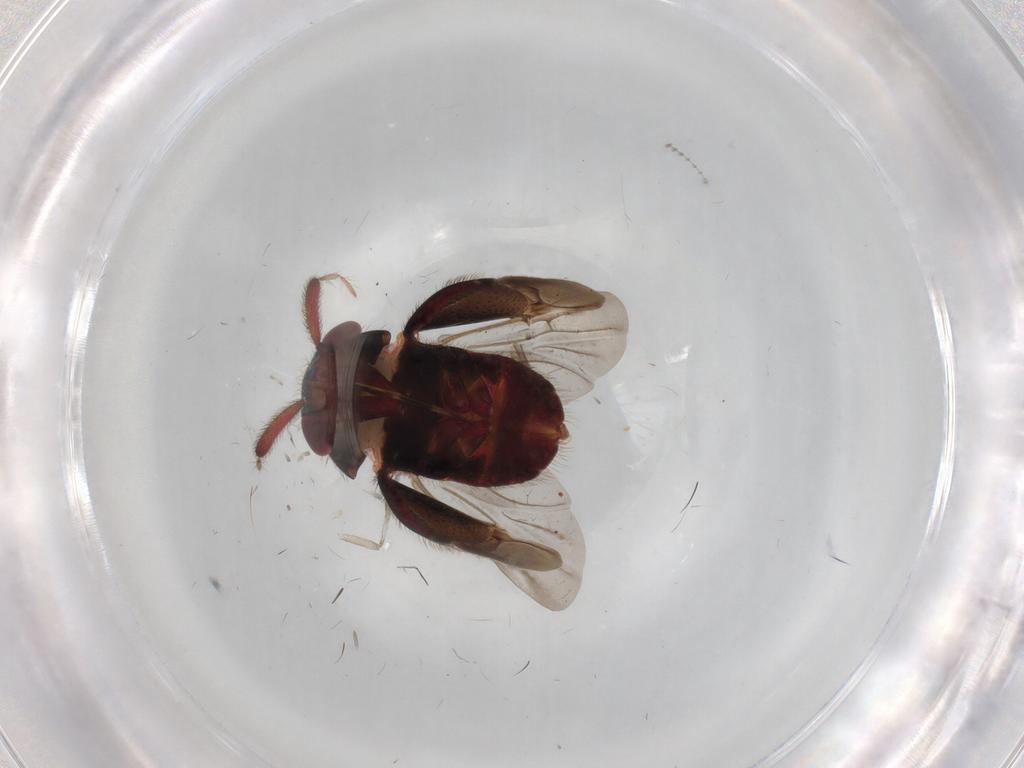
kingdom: Animalia
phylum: Arthropoda
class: Insecta
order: Hemiptera
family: Miridae
